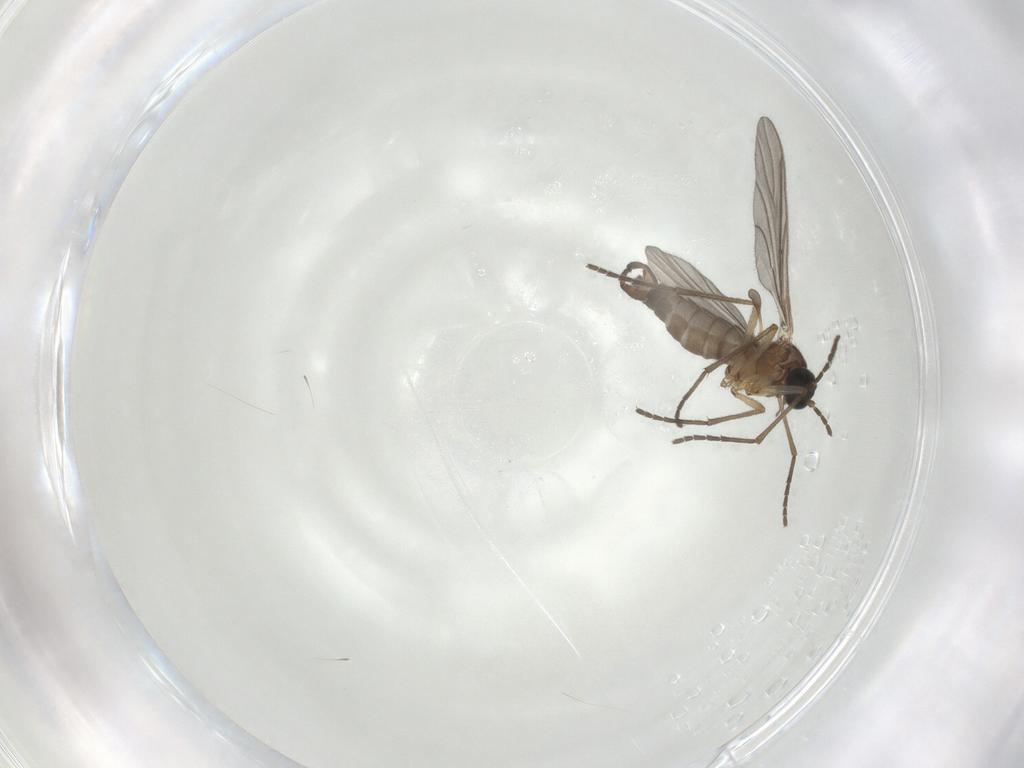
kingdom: Animalia
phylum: Arthropoda
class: Insecta
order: Diptera
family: Sciaridae
